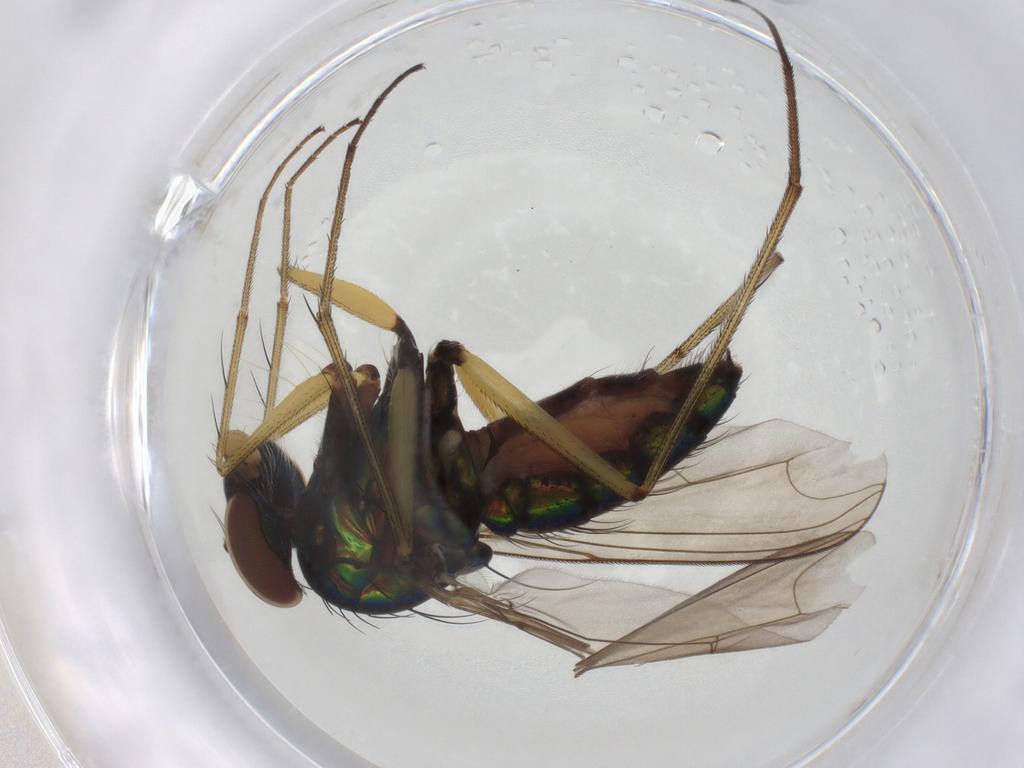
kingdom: Animalia
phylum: Arthropoda
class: Insecta
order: Diptera
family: Dolichopodidae
